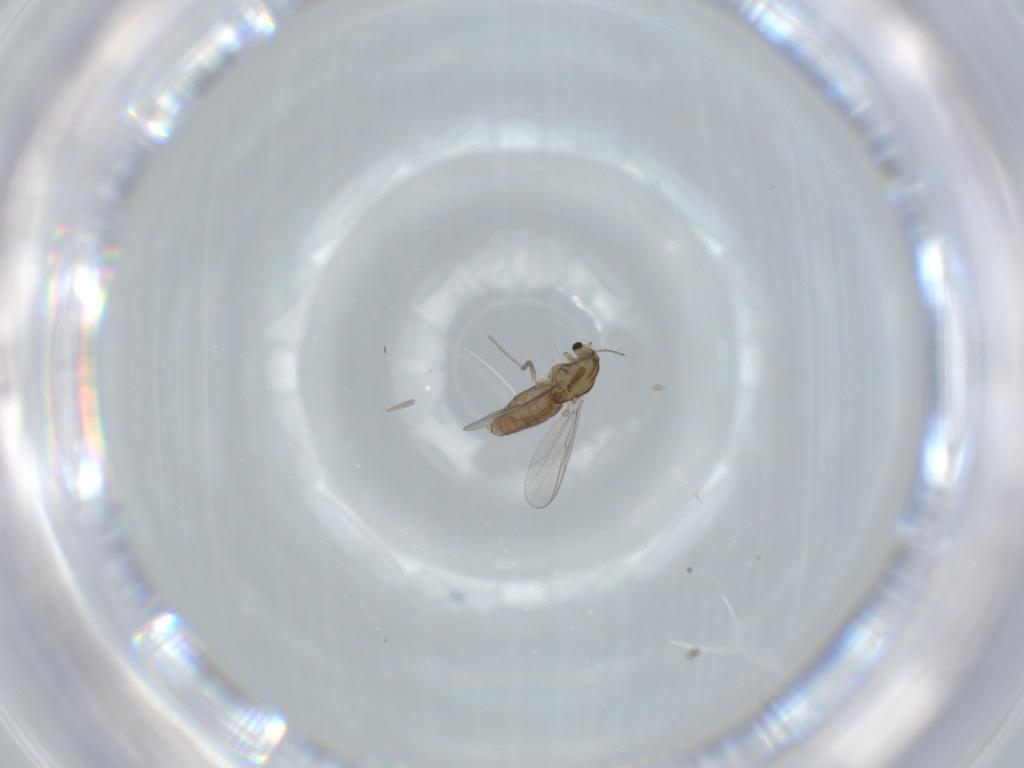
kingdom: Animalia
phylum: Arthropoda
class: Insecta
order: Diptera
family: Chironomidae
